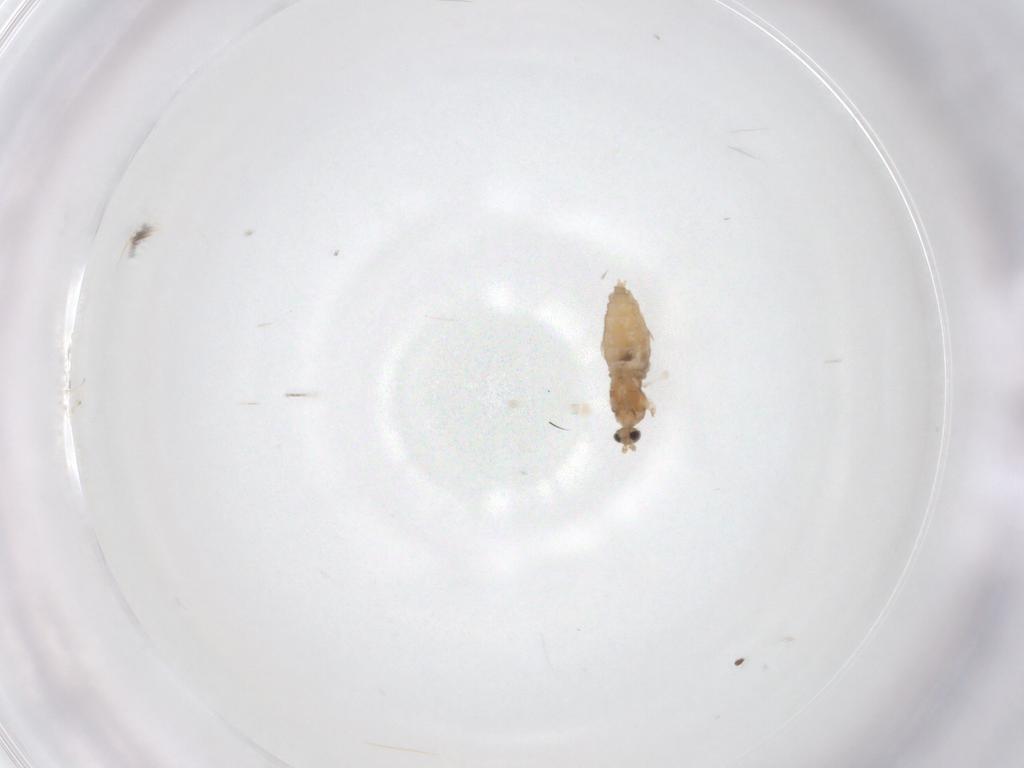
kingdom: Animalia
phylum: Arthropoda
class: Insecta
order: Diptera
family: Cecidomyiidae
